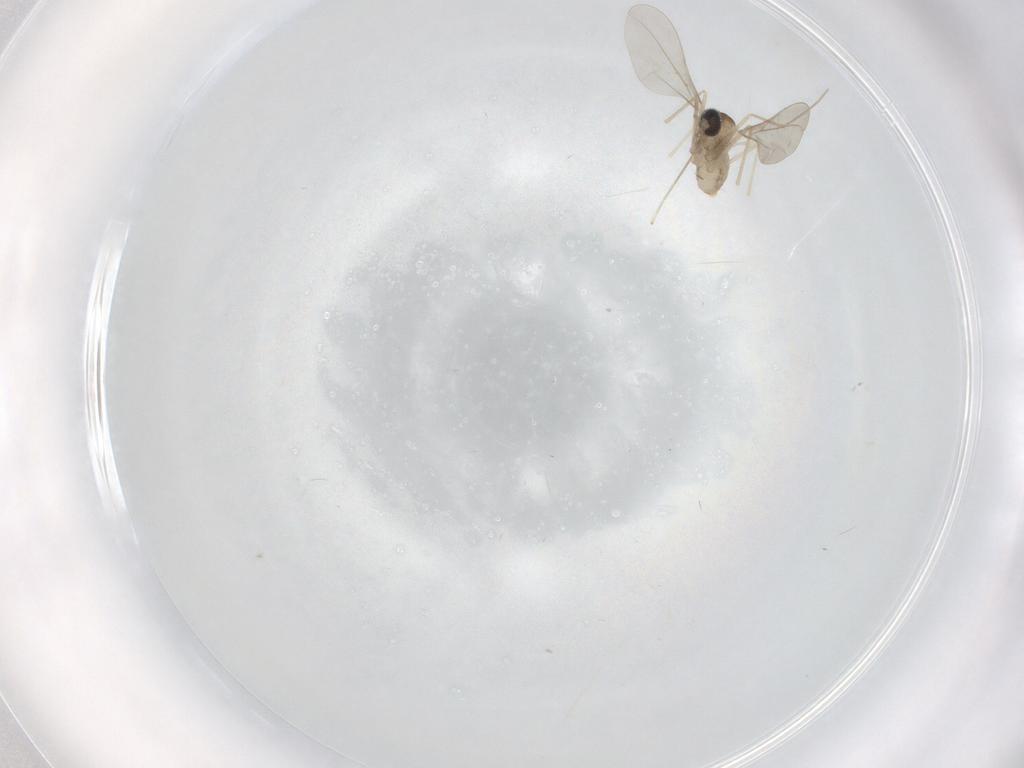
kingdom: Animalia
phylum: Arthropoda
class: Insecta
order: Diptera
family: Cecidomyiidae
